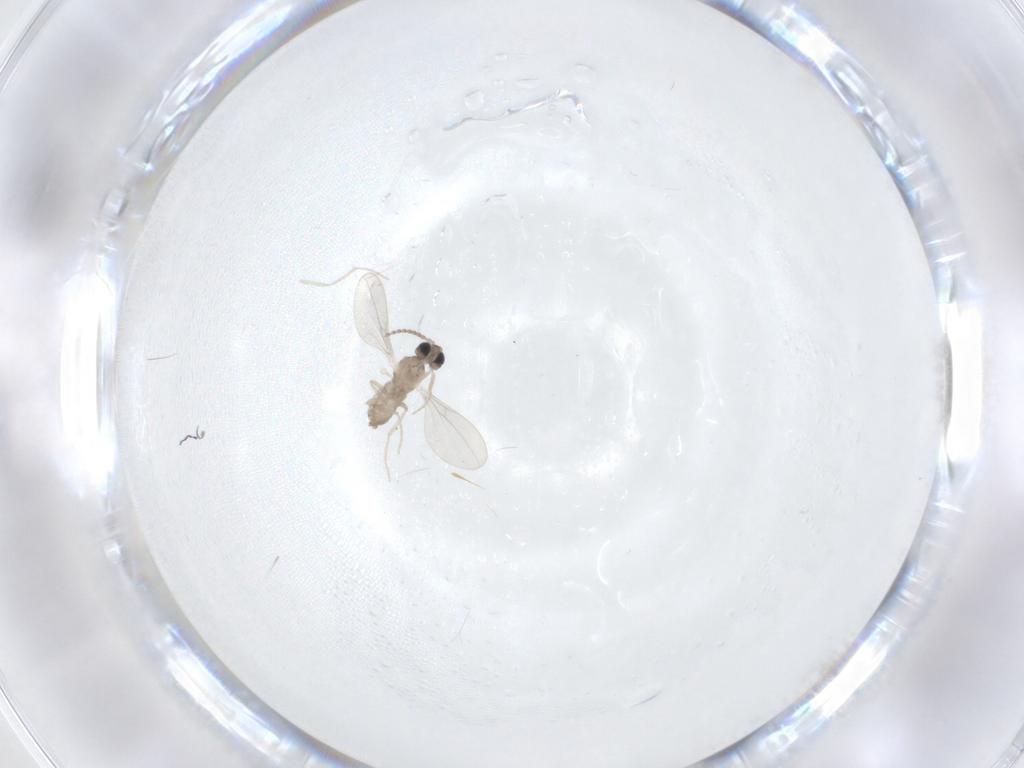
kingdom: Animalia
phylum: Arthropoda
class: Insecta
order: Diptera
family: Cecidomyiidae
